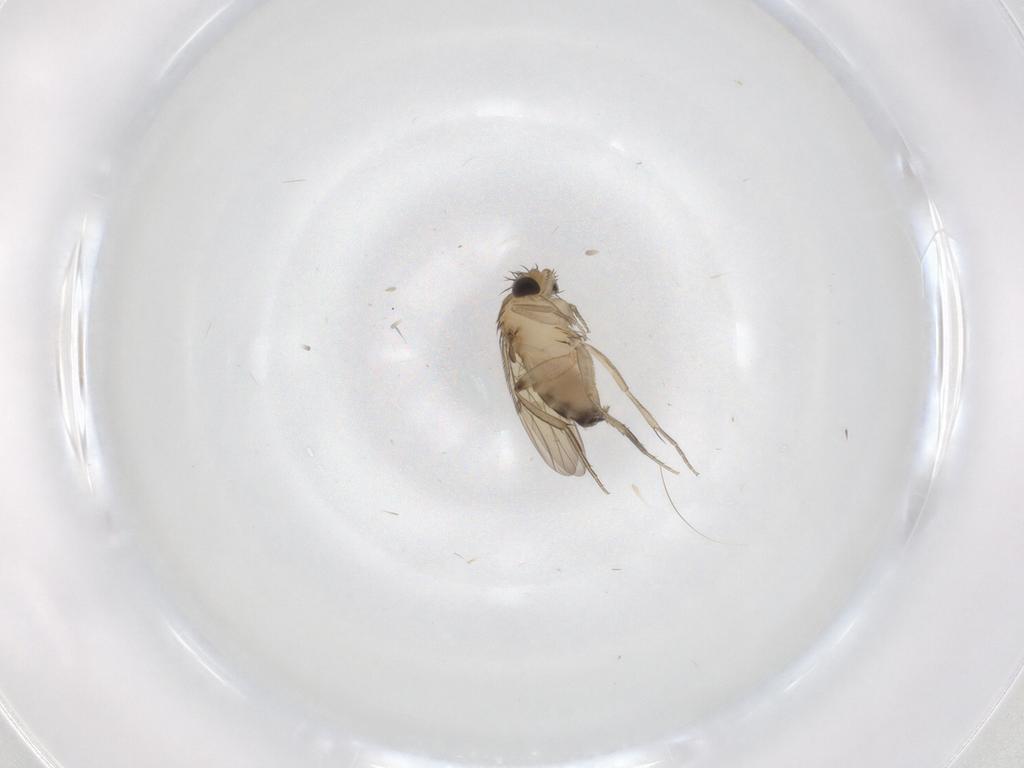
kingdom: Animalia
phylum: Arthropoda
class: Insecta
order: Diptera
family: Phoridae
